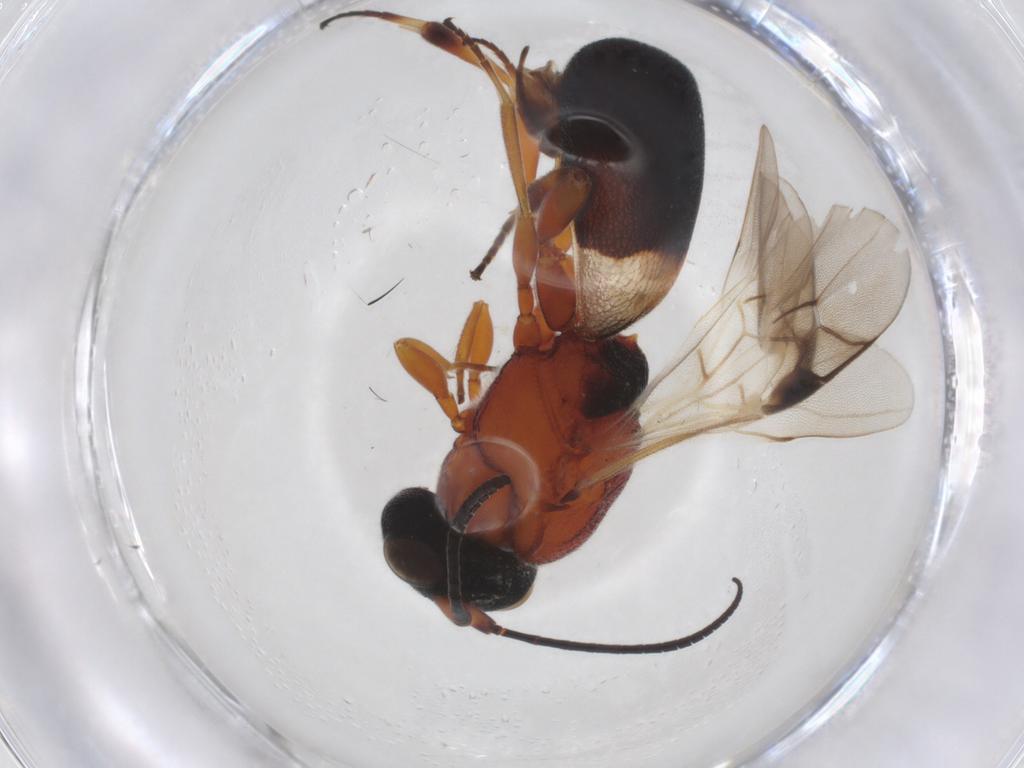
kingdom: Animalia
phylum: Arthropoda
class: Insecta
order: Hymenoptera
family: Braconidae
